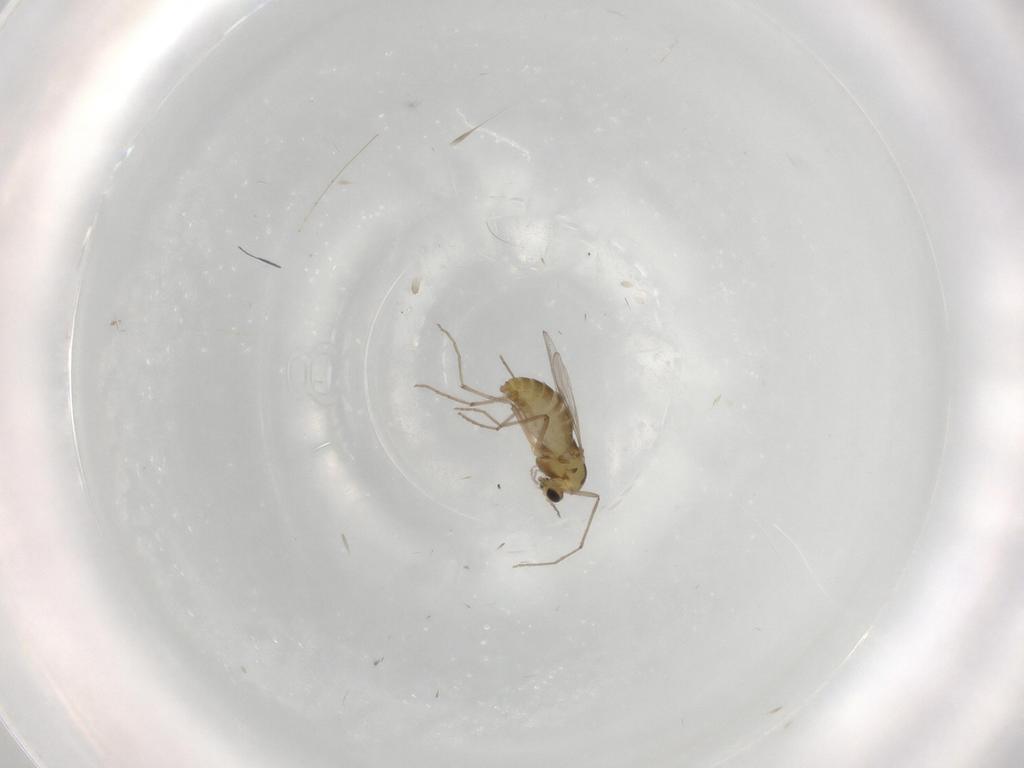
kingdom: Animalia
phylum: Arthropoda
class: Insecta
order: Diptera
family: Chironomidae
